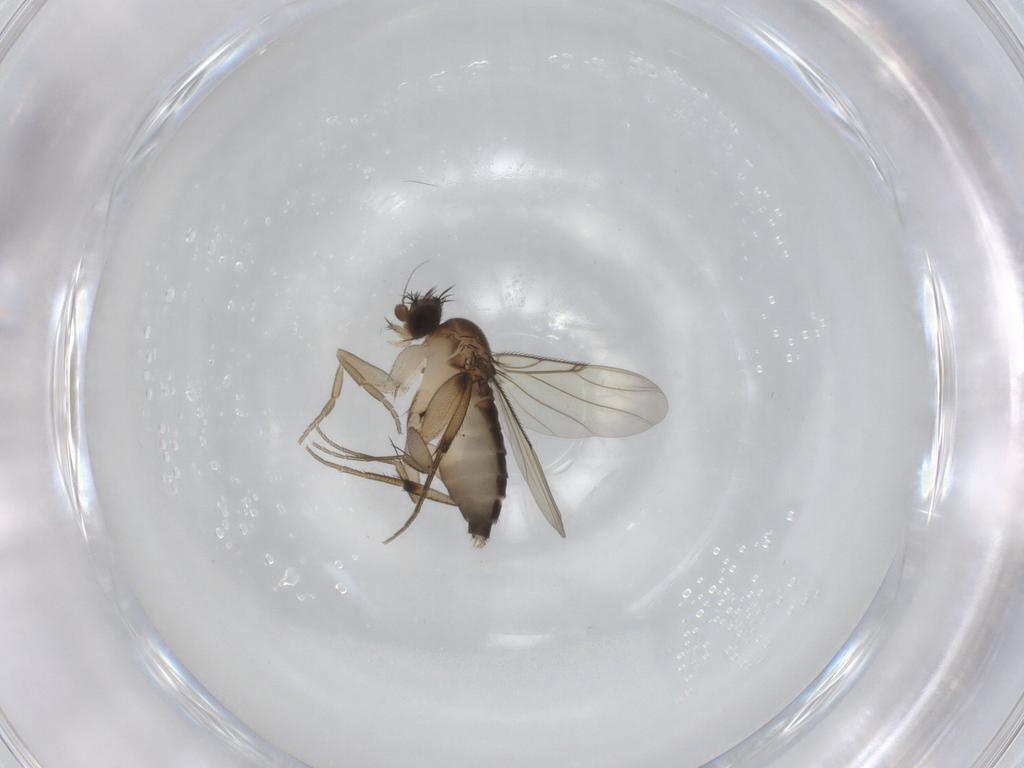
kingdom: Animalia
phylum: Arthropoda
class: Insecta
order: Diptera
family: Phoridae
